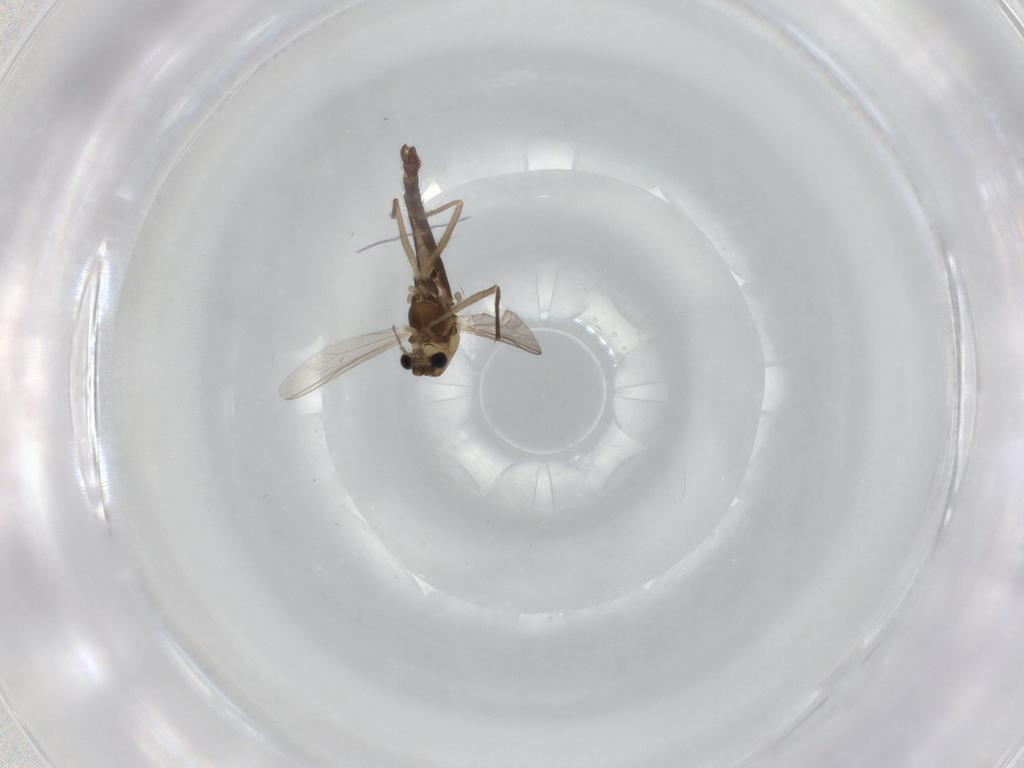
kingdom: Animalia
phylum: Arthropoda
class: Insecta
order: Diptera
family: Chironomidae
